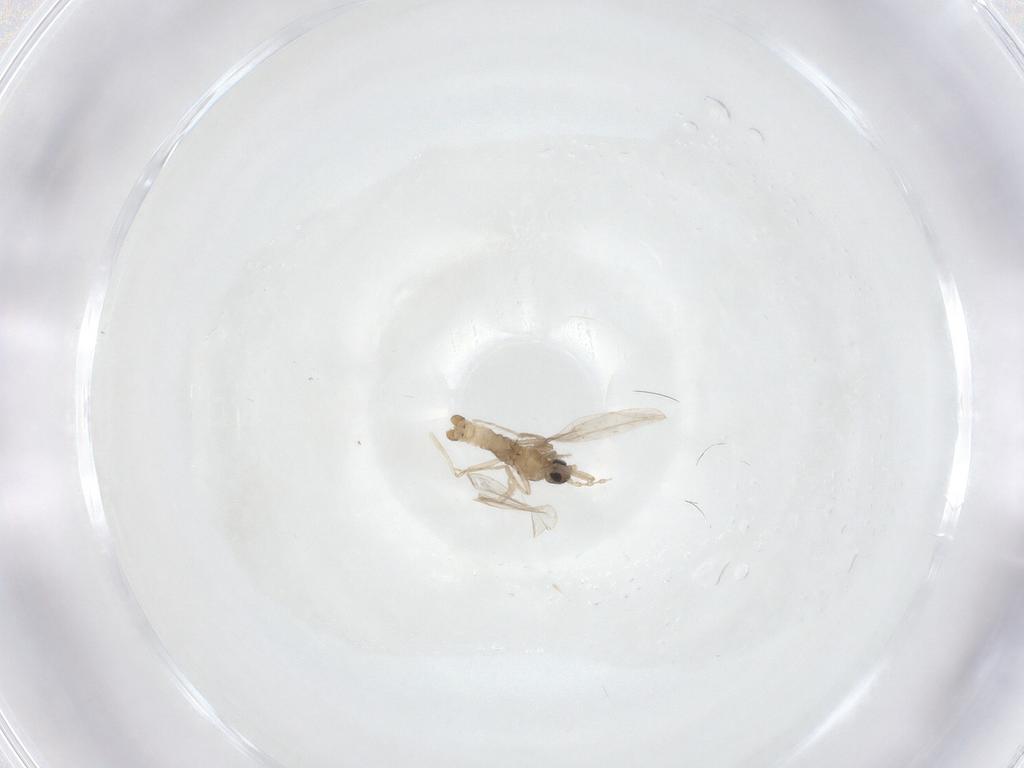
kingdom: Animalia
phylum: Arthropoda
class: Insecta
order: Diptera
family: Cecidomyiidae
